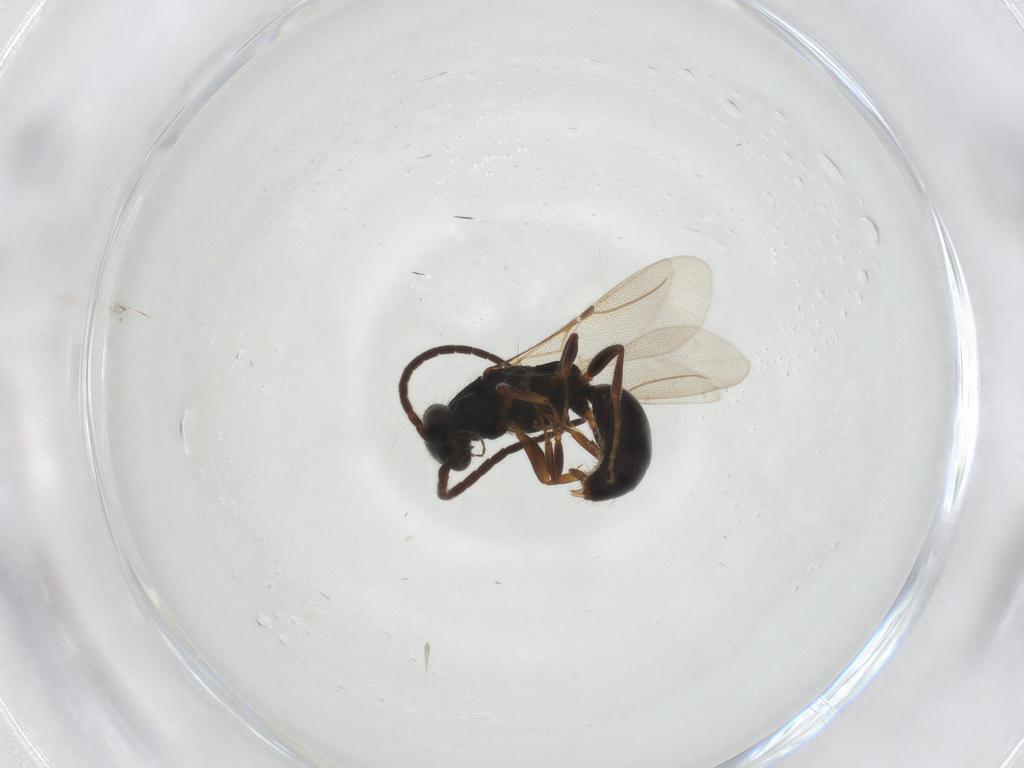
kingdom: Animalia
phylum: Arthropoda
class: Insecta
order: Hymenoptera
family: Bethylidae
